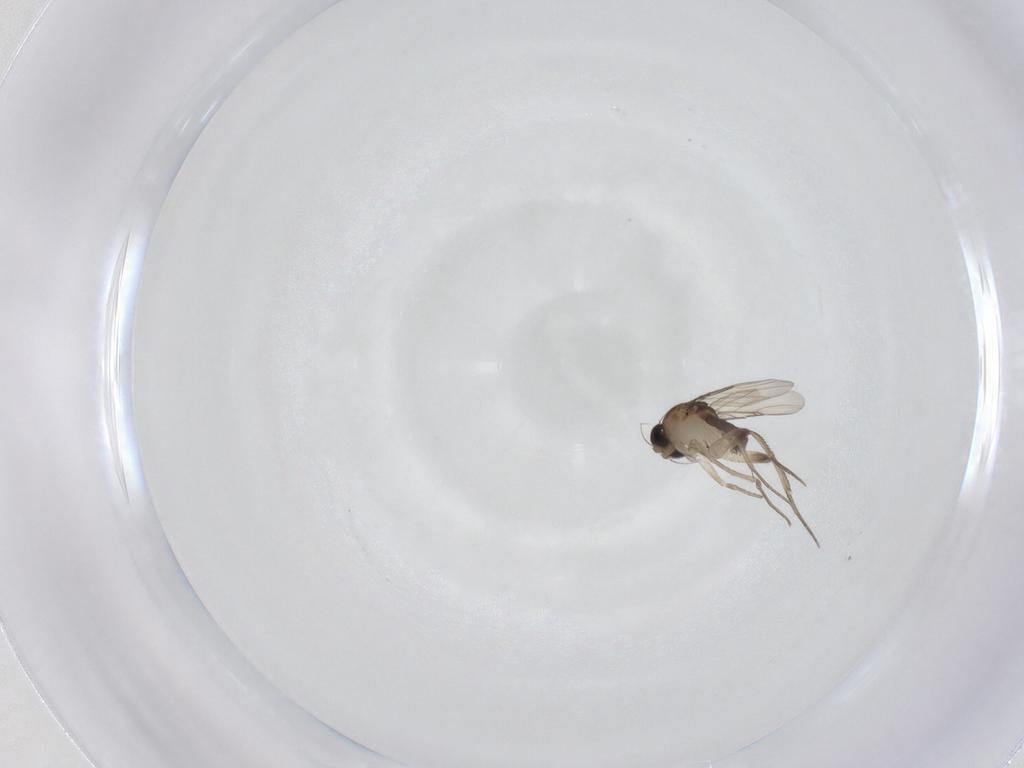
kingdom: Animalia
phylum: Arthropoda
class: Insecta
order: Diptera
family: Phoridae
